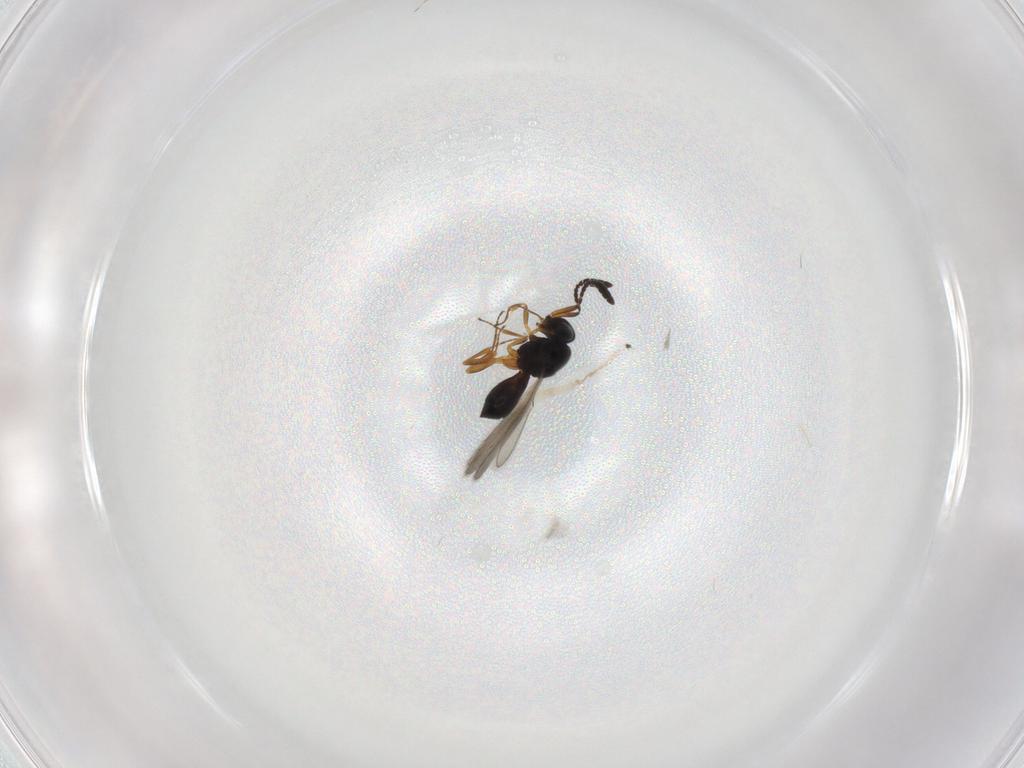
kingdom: Animalia
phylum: Arthropoda
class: Insecta
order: Hymenoptera
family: Scelionidae
